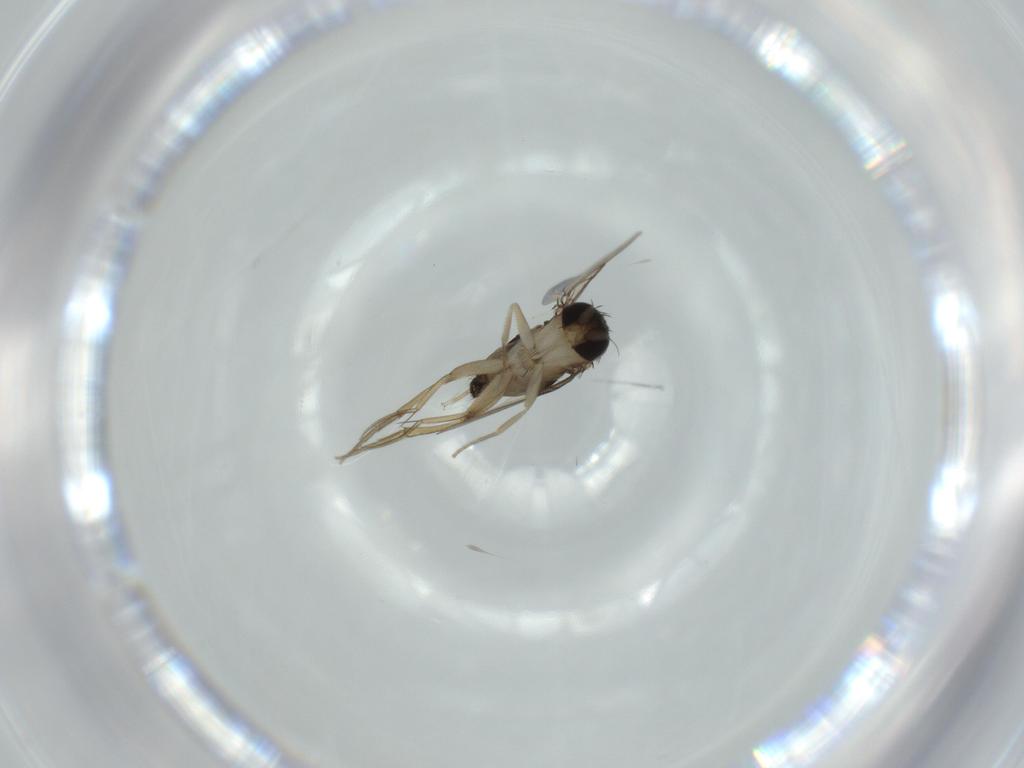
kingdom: Animalia
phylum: Arthropoda
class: Insecta
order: Diptera
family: Phoridae
